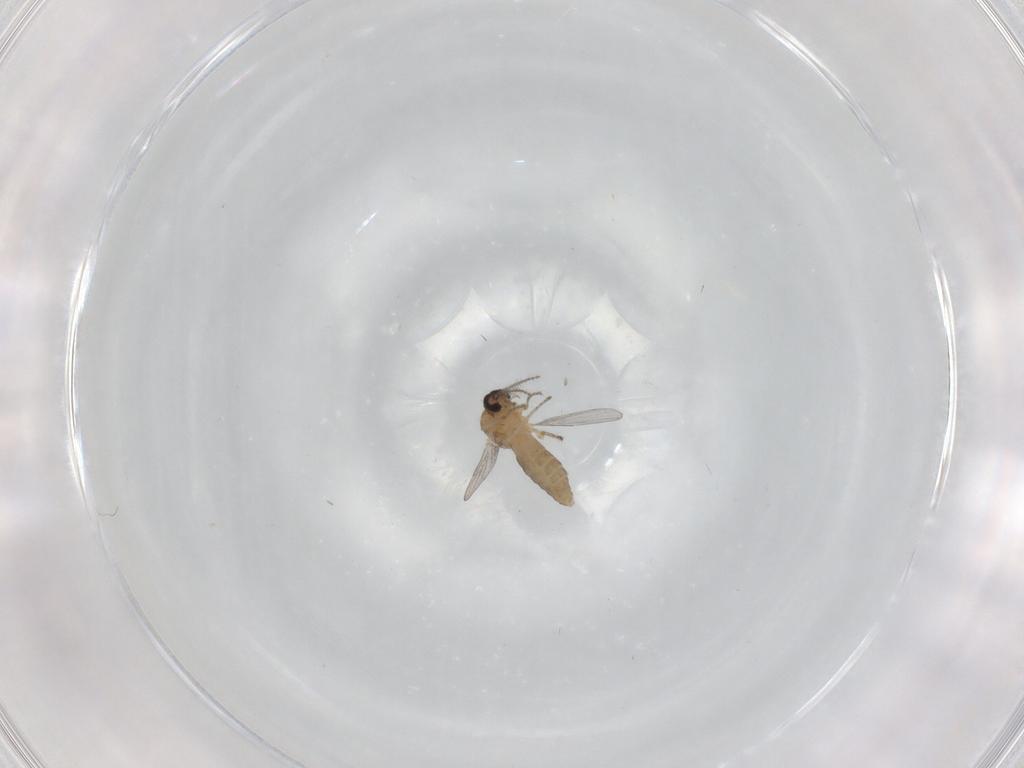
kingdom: Animalia
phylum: Arthropoda
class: Insecta
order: Diptera
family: Ceratopogonidae
